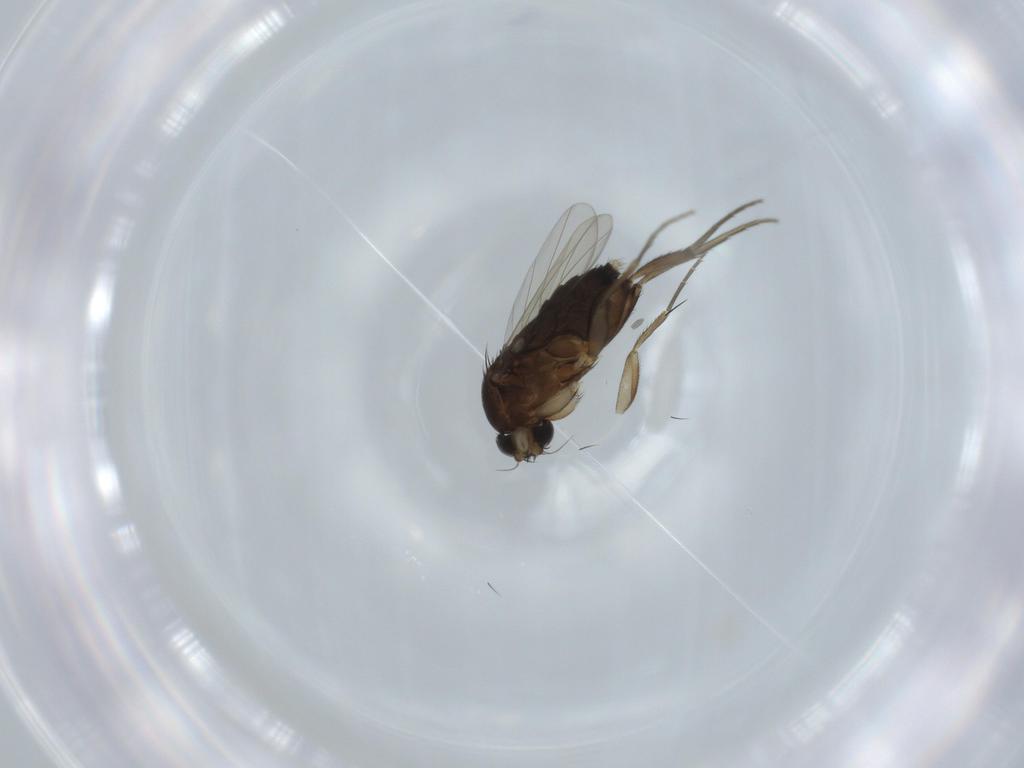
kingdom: Animalia
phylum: Arthropoda
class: Insecta
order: Diptera
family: Phoridae
